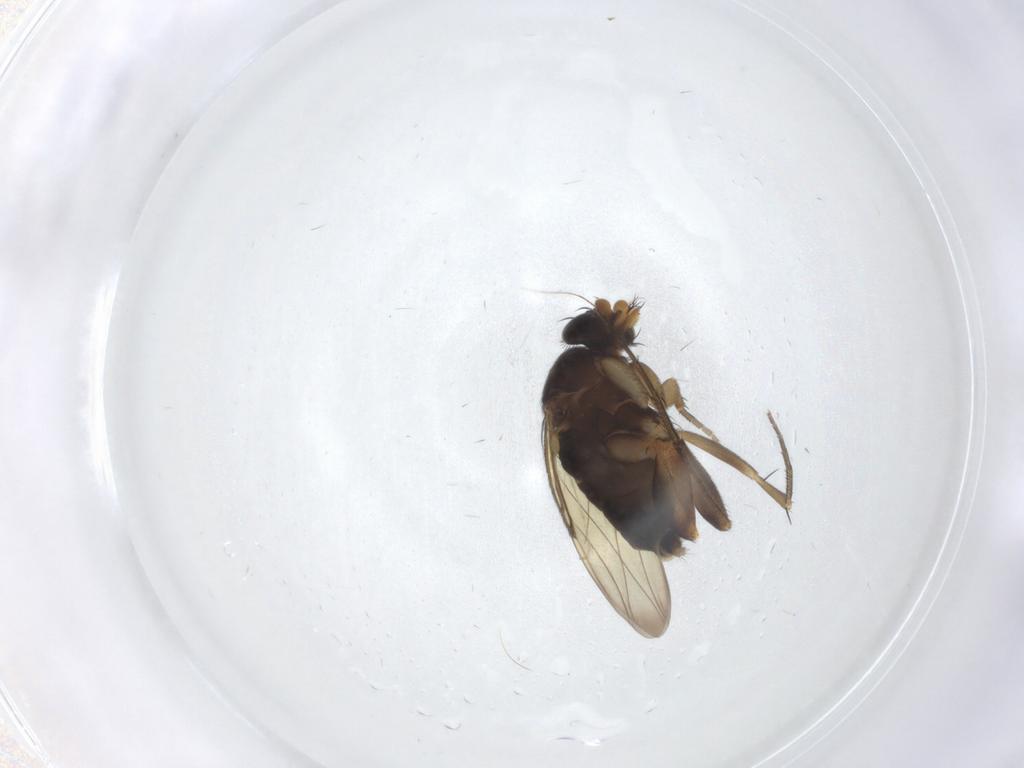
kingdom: Animalia
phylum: Arthropoda
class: Insecta
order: Diptera
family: Phoridae
